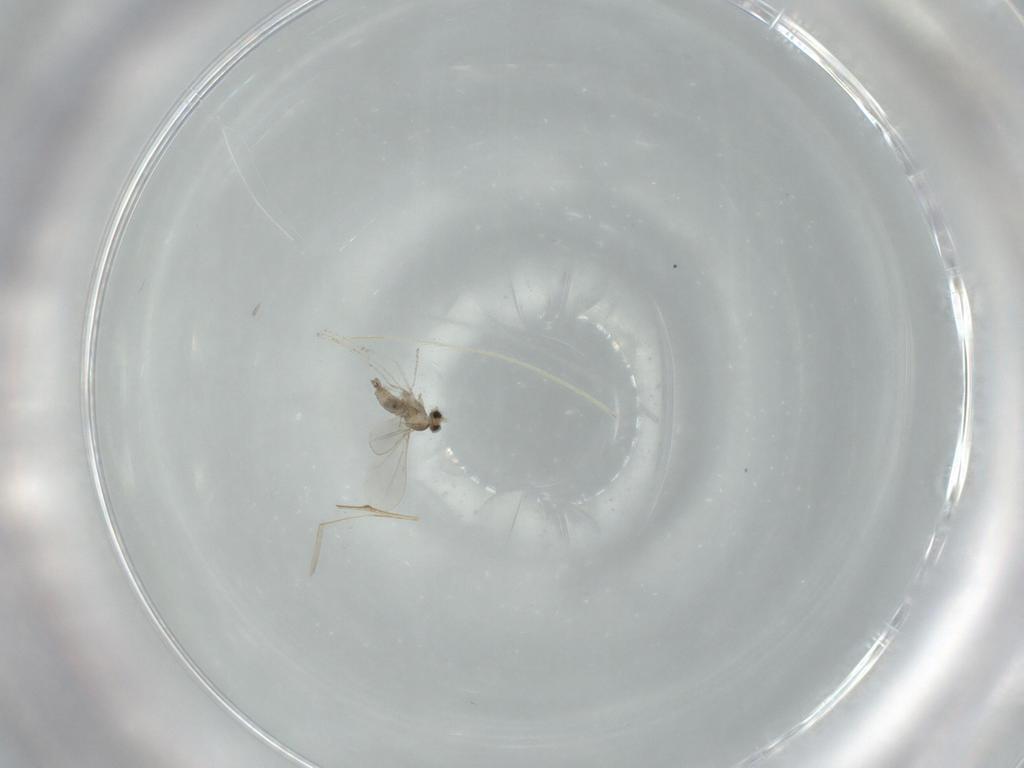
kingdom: Animalia
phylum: Arthropoda
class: Insecta
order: Diptera
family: Cecidomyiidae
